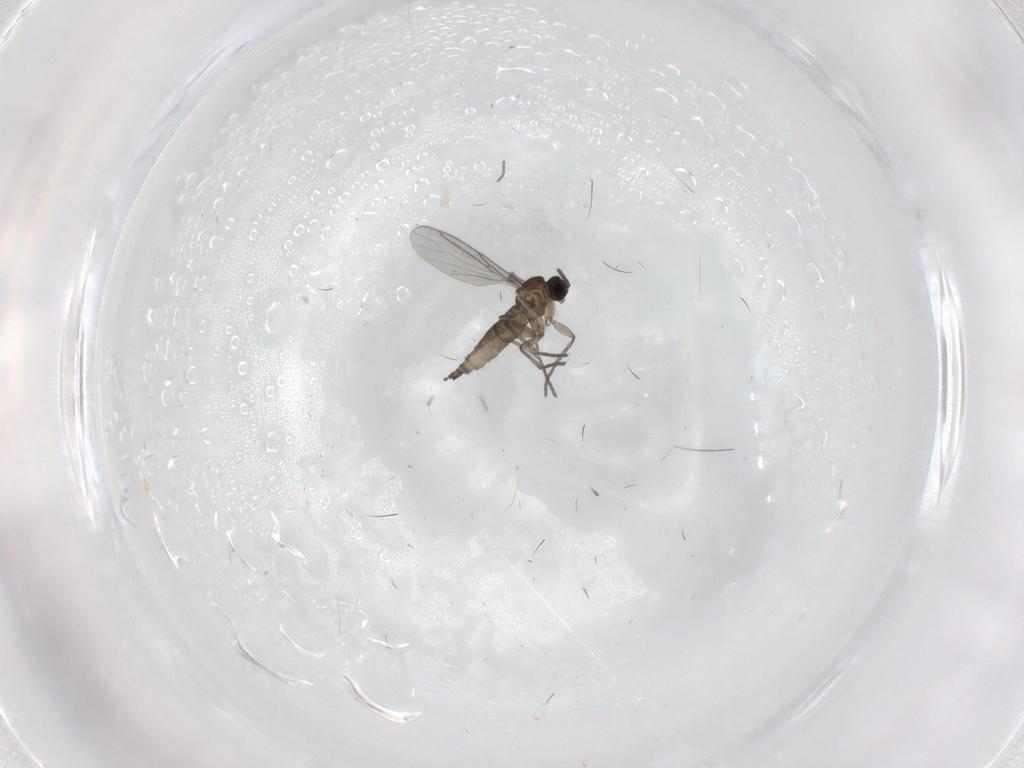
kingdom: Animalia
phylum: Arthropoda
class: Insecta
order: Diptera
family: Sciaridae
